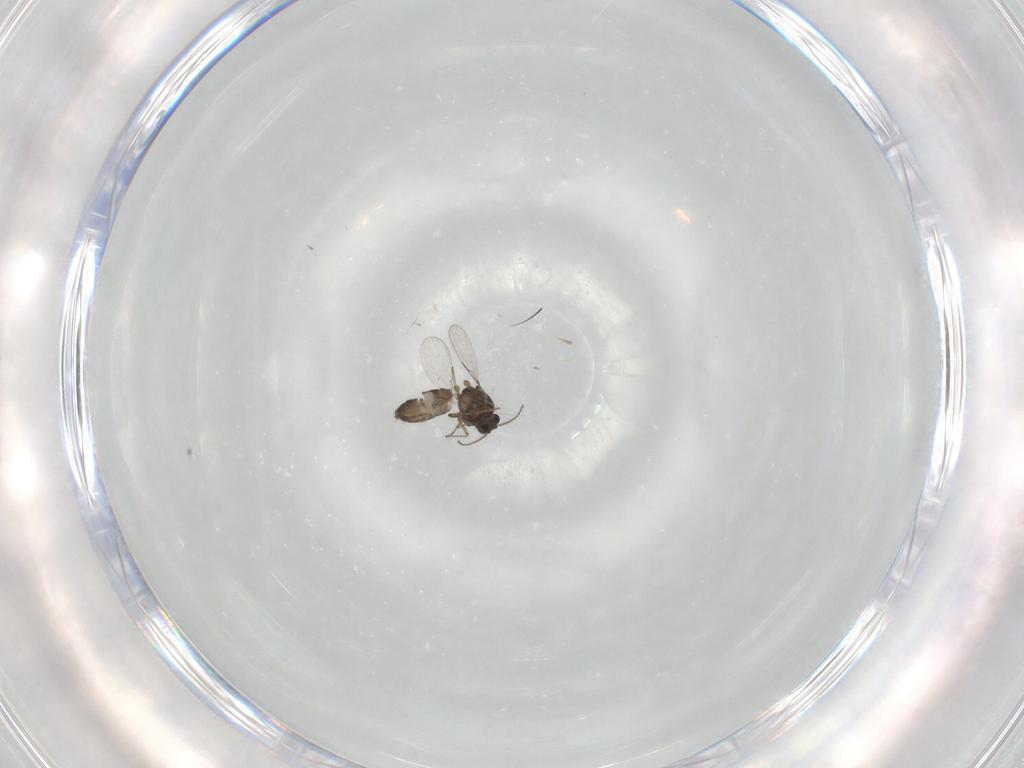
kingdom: Animalia
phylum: Arthropoda
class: Insecta
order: Diptera
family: Ceratopogonidae
